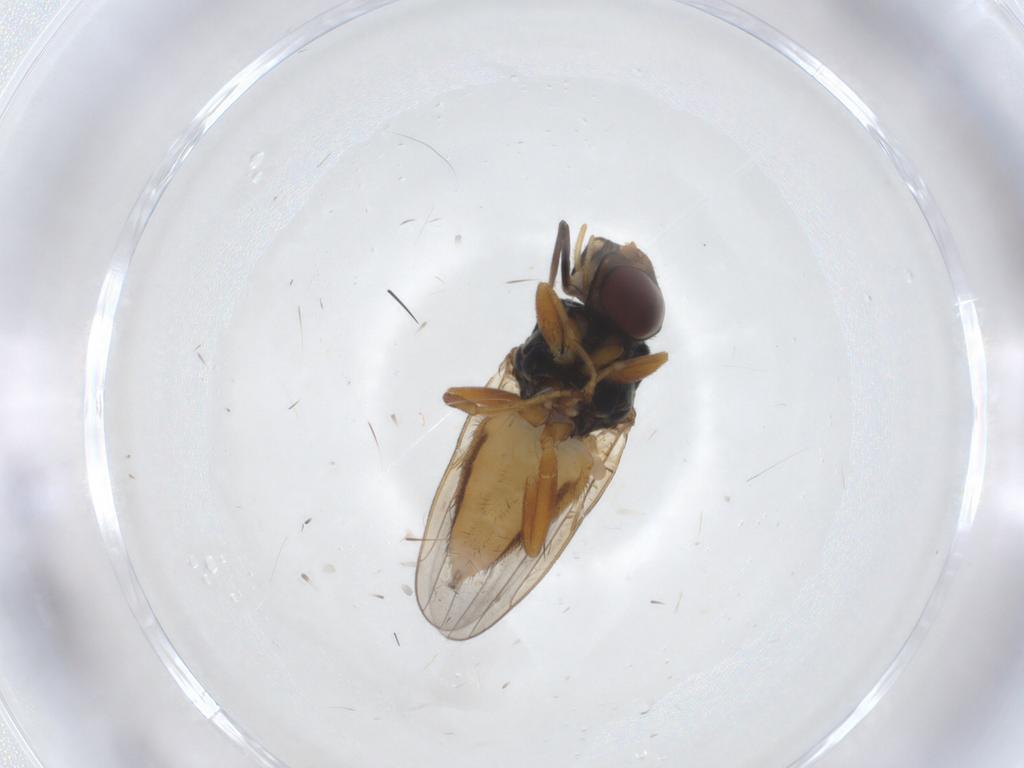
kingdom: Animalia
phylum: Arthropoda
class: Insecta
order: Diptera
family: Chloropidae
